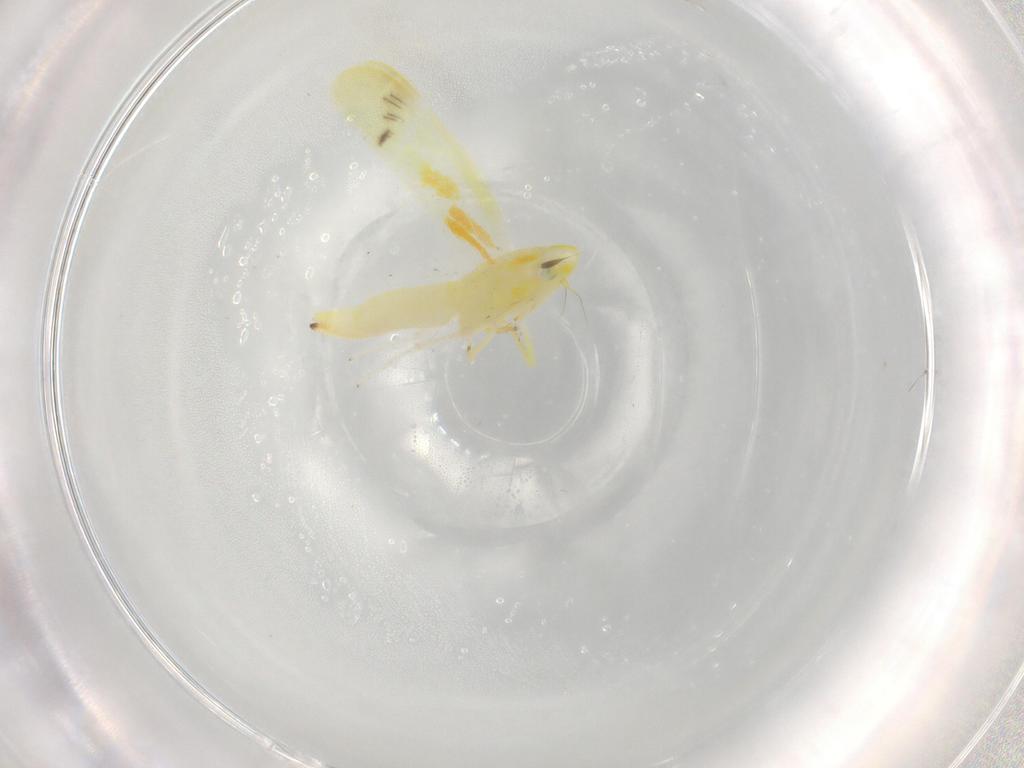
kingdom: Animalia
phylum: Arthropoda
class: Insecta
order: Hemiptera
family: Cicadellidae
